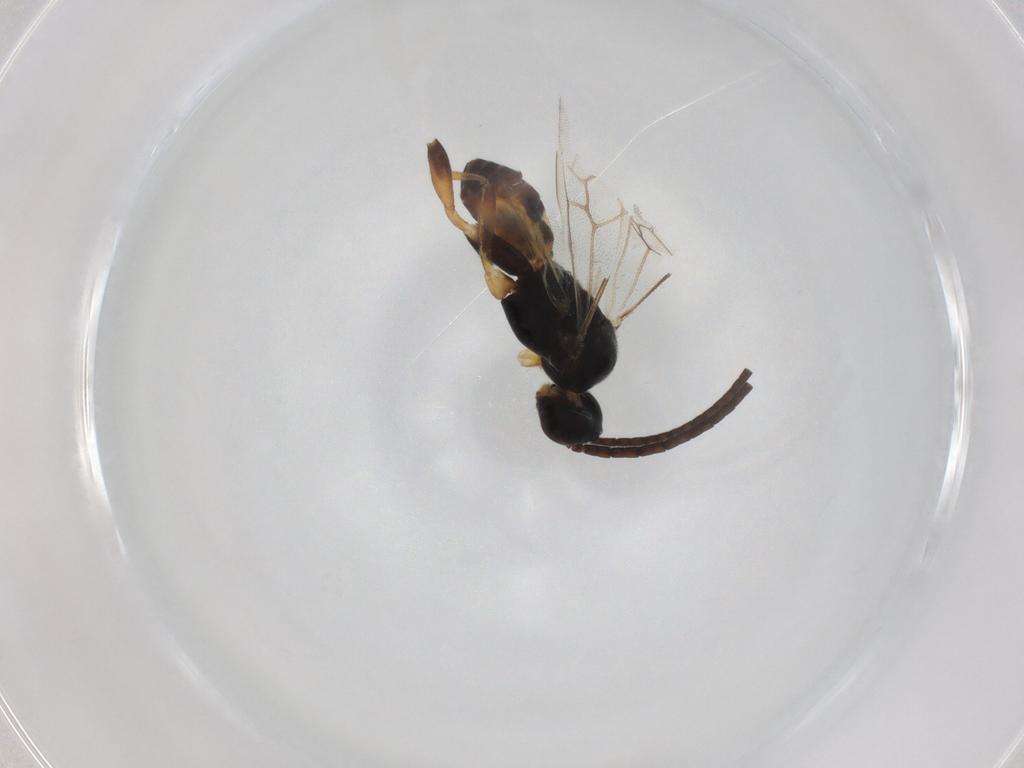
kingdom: Animalia
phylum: Arthropoda
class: Insecta
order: Hymenoptera
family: Braconidae
